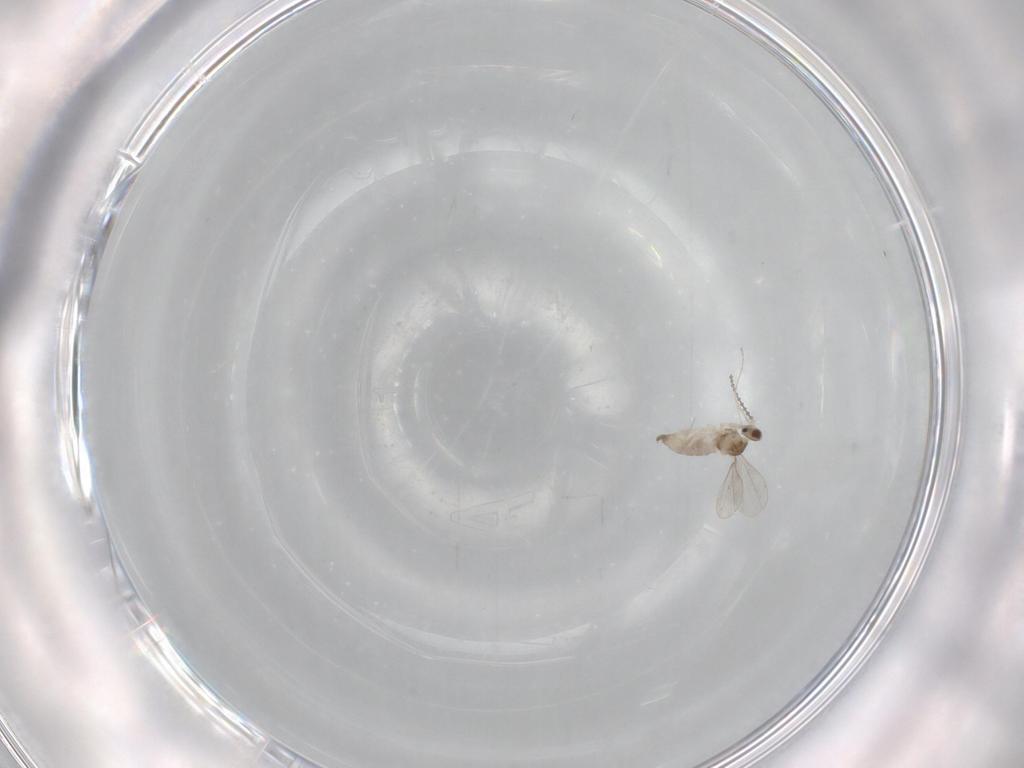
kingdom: Animalia
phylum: Arthropoda
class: Insecta
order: Diptera
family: Cecidomyiidae
